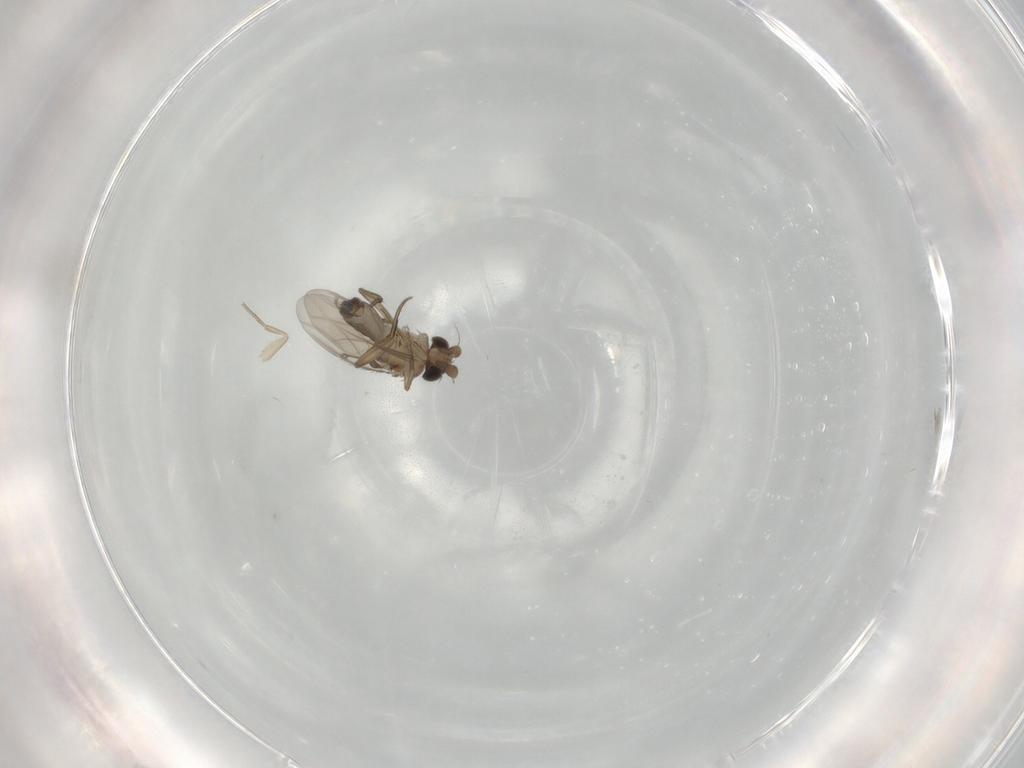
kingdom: Animalia
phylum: Arthropoda
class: Insecta
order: Diptera
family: Phoridae
